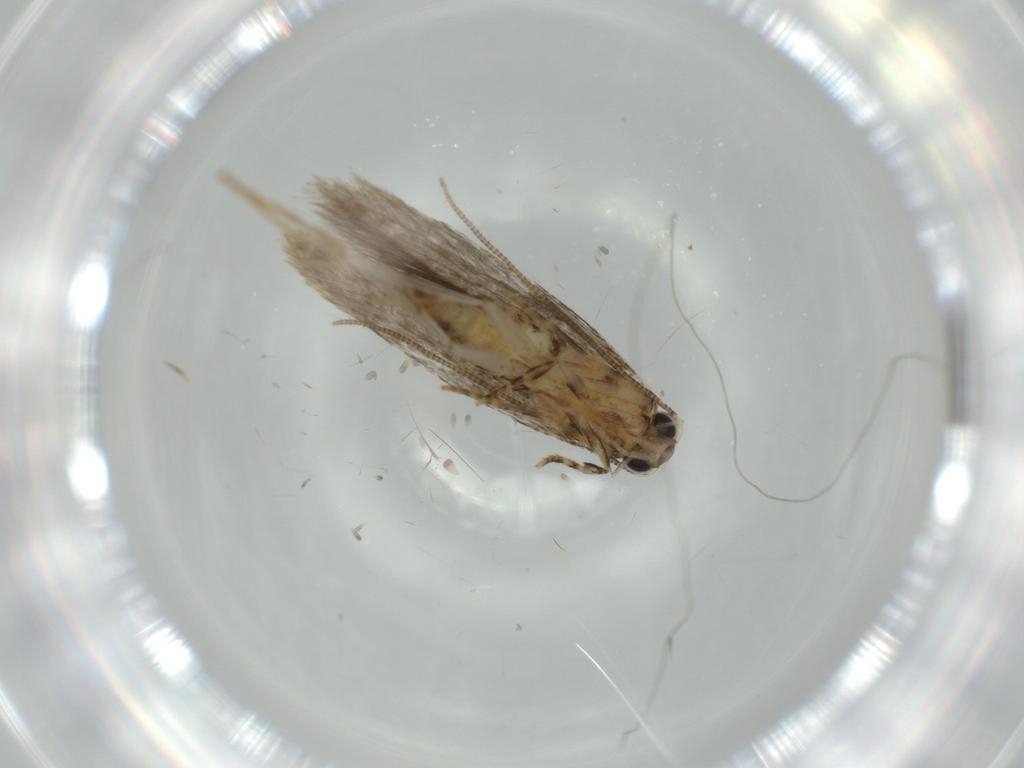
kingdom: Animalia
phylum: Arthropoda
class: Insecta
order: Lepidoptera
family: Tineidae
